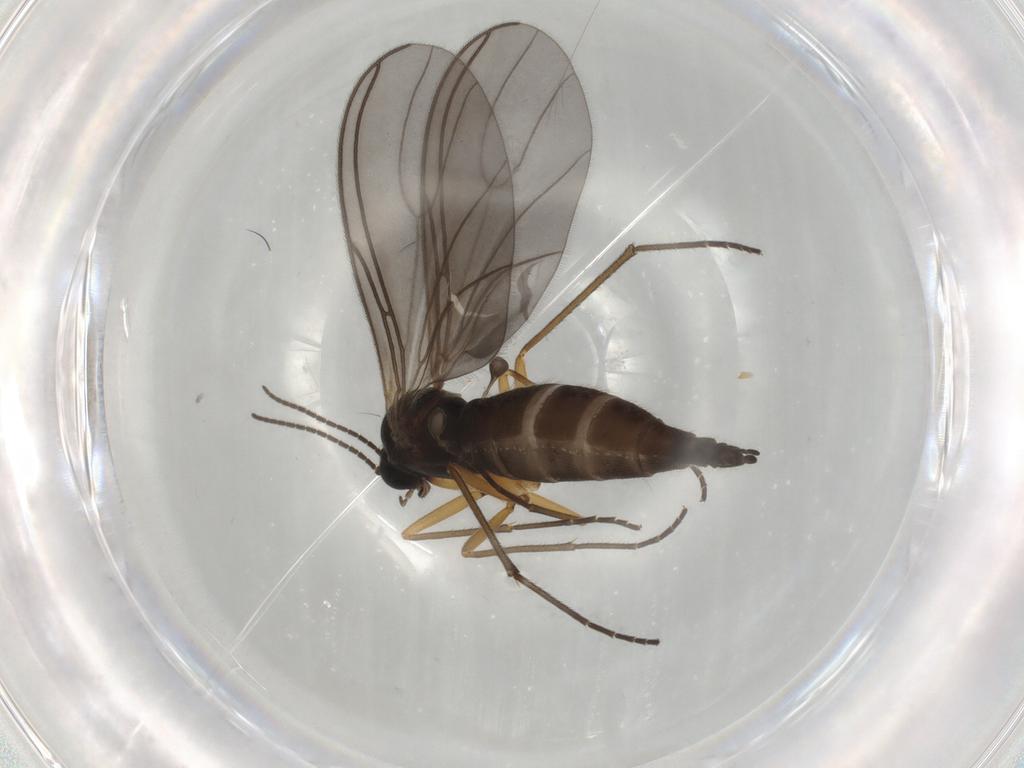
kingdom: Animalia
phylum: Arthropoda
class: Insecta
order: Diptera
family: Sciaridae
